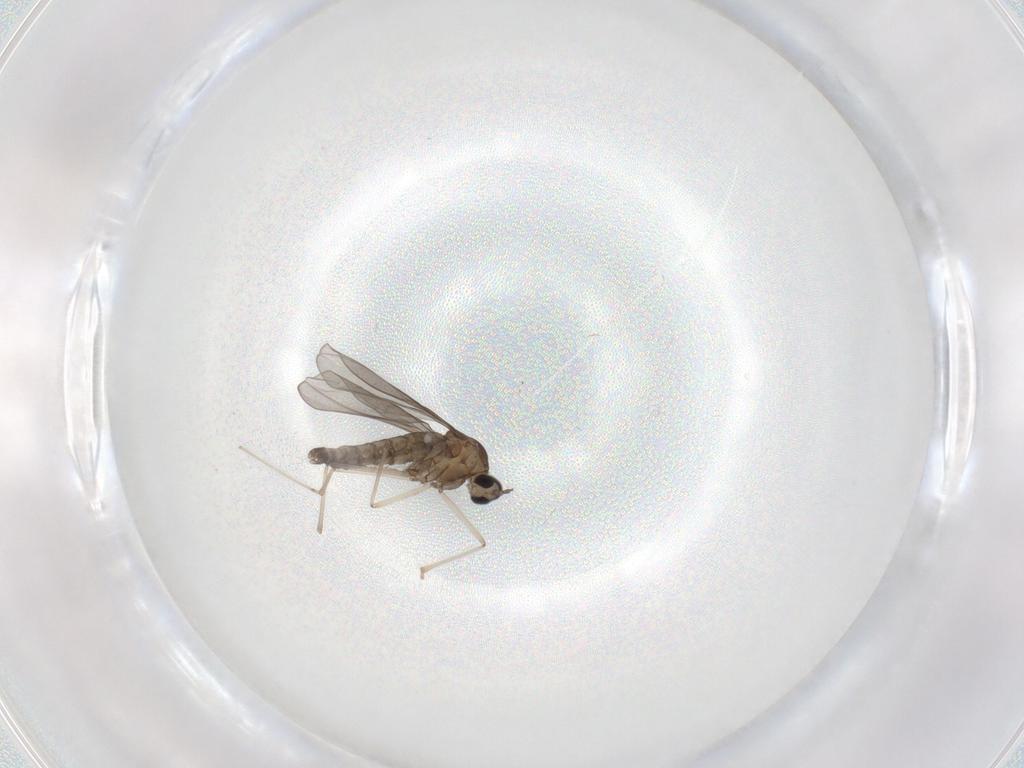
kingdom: Animalia
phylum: Arthropoda
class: Insecta
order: Diptera
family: Cecidomyiidae
